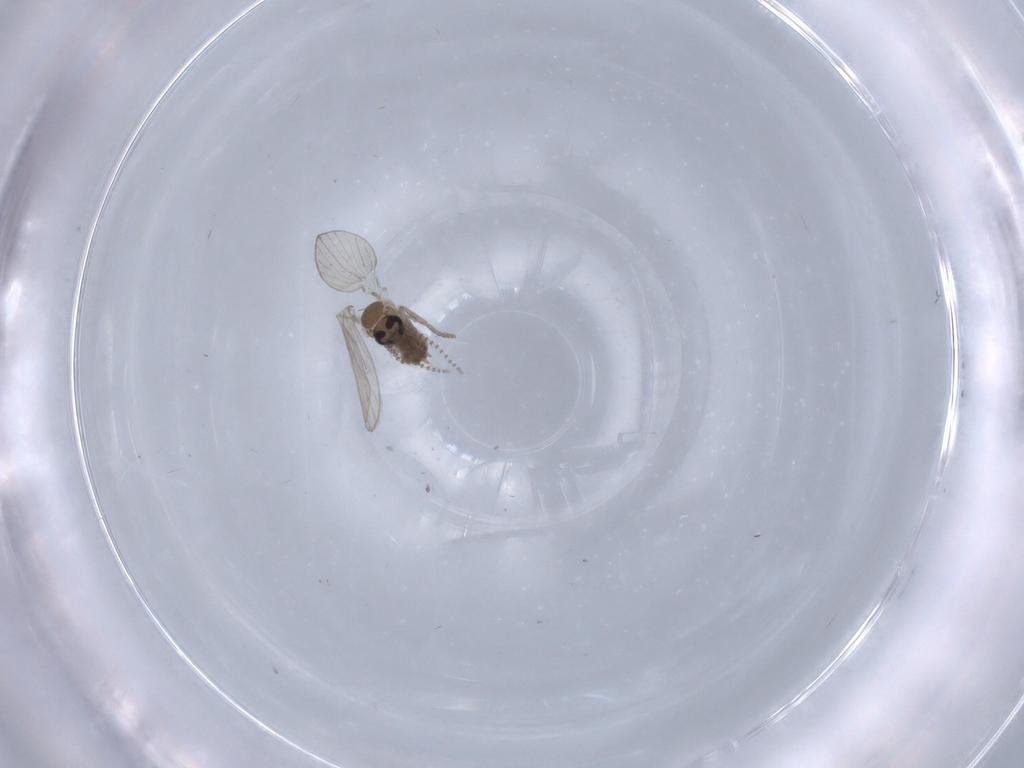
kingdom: Animalia
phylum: Arthropoda
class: Insecta
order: Diptera
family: Psychodidae
